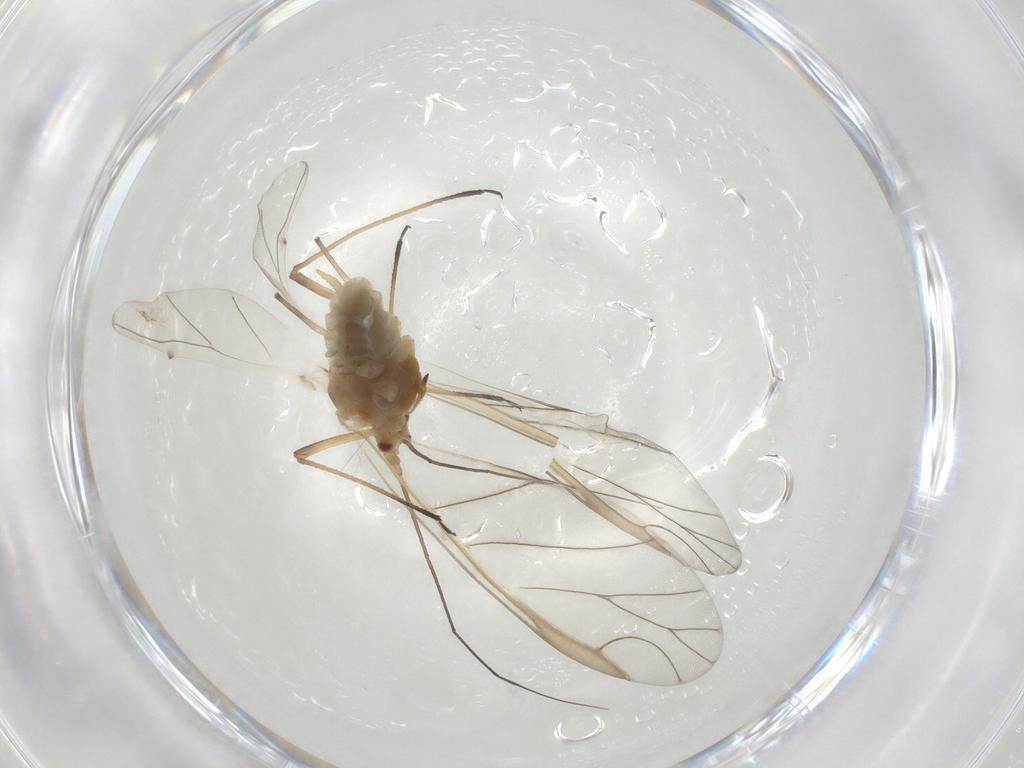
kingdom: Animalia
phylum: Arthropoda
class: Insecta
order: Hemiptera
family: Aphididae
